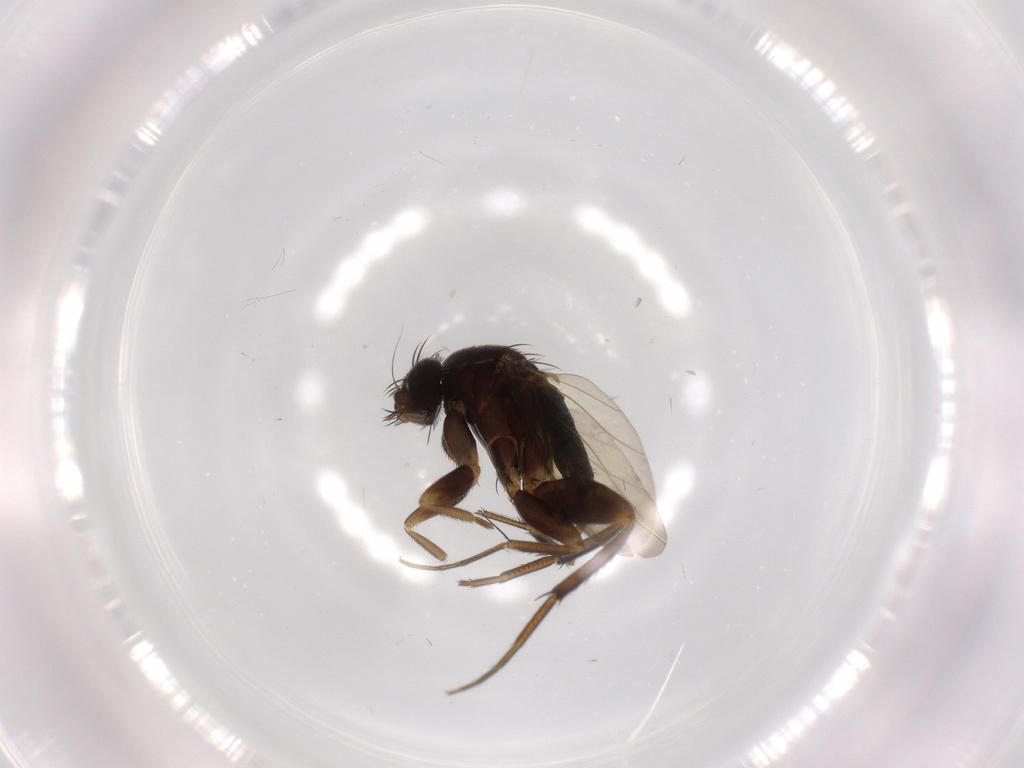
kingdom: Animalia
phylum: Arthropoda
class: Insecta
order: Diptera
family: Phoridae
